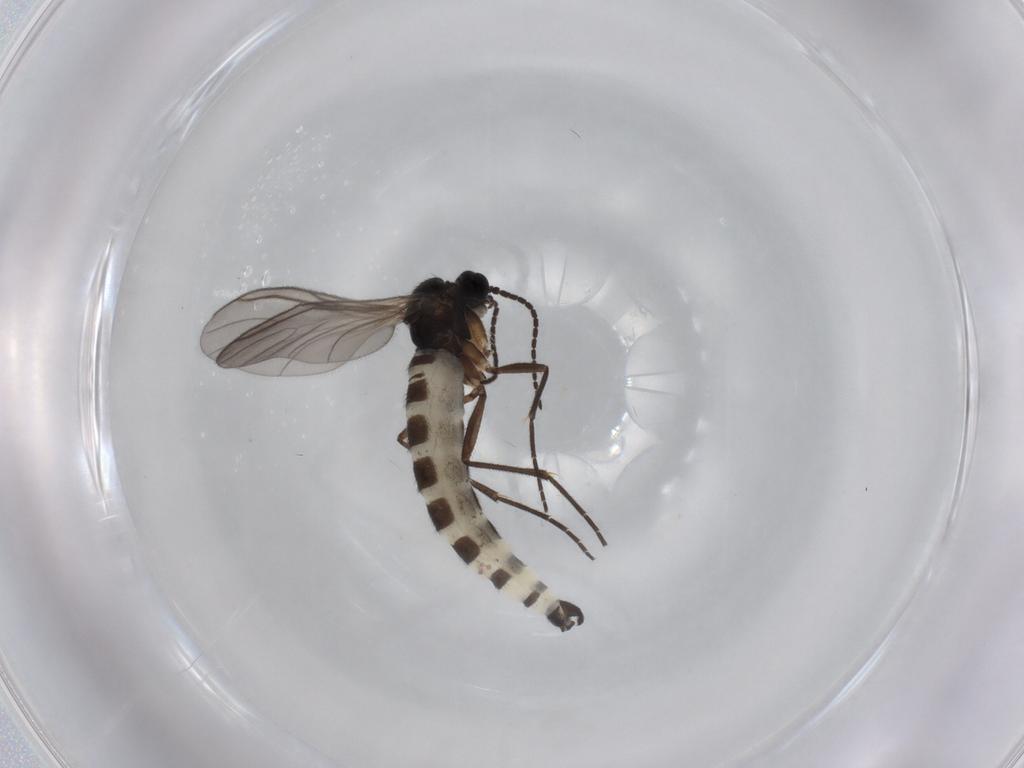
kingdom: Animalia
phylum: Arthropoda
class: Insecta
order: Diptera
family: Sciaridae
